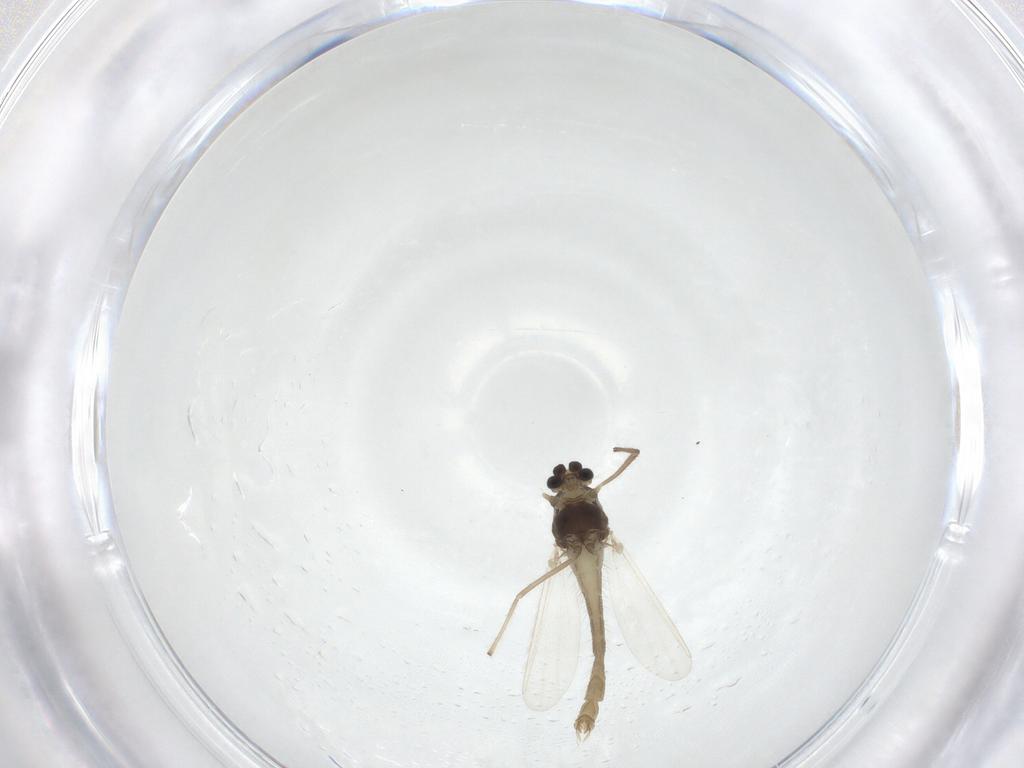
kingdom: Animalia
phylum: Arthropoda
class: Insecta
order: Diptera
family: Chironomidae
